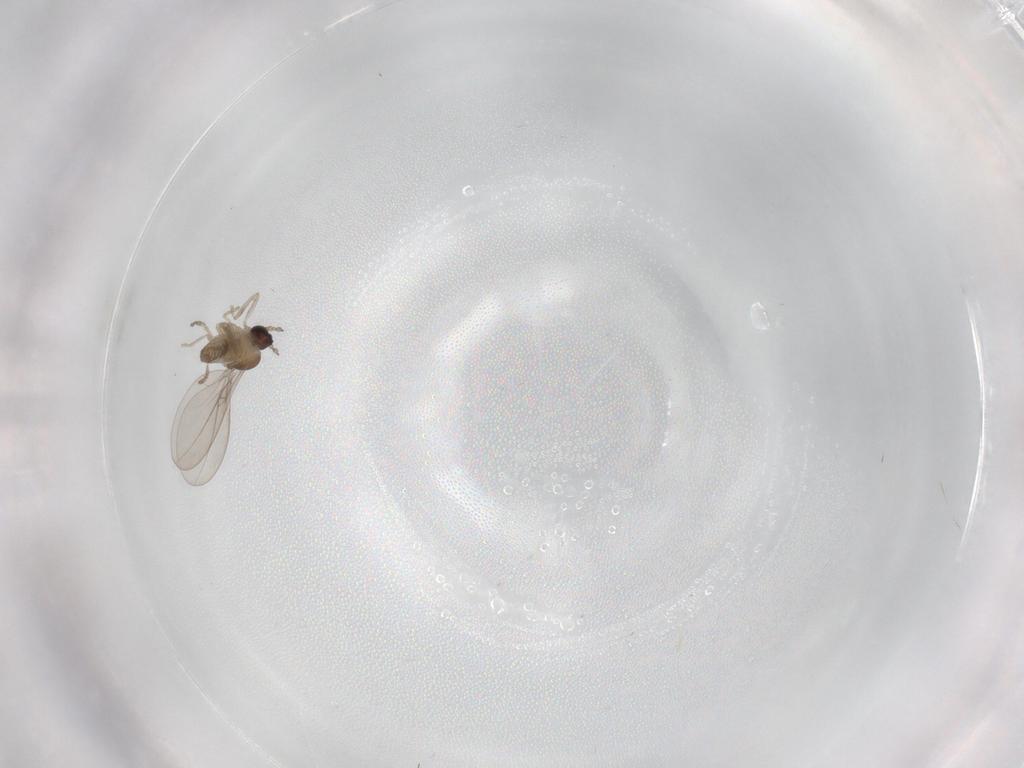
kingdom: Animalia
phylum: Arthropoda
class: Insecta
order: Diptera
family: Cecidomyiidae
